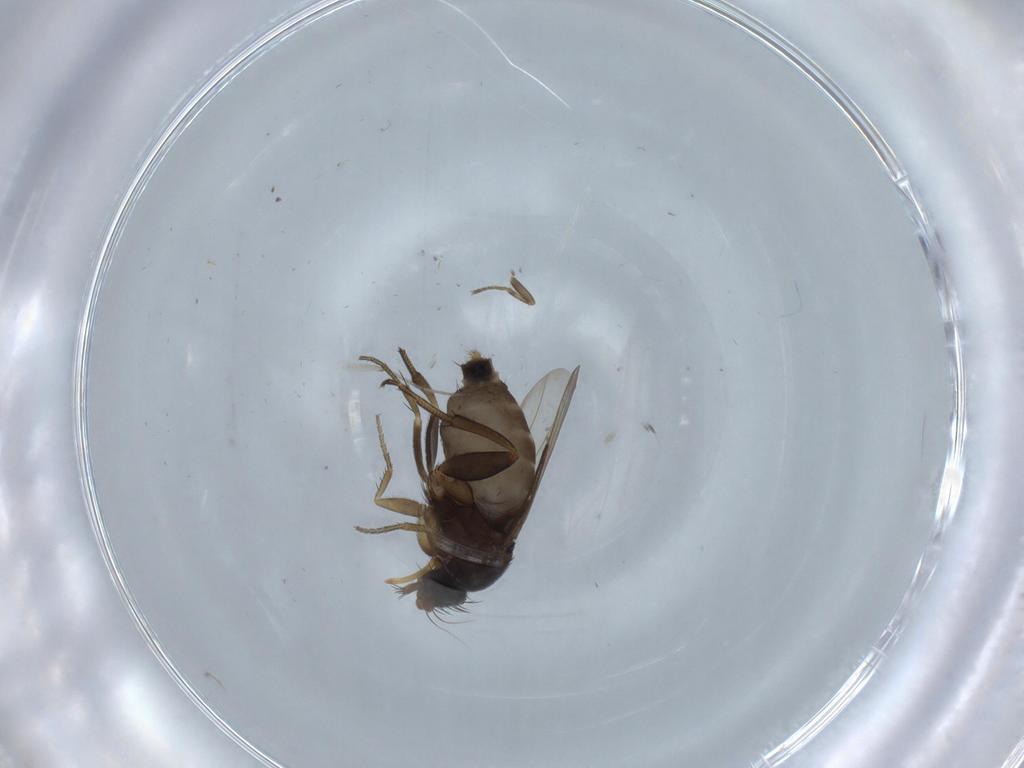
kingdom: Animalia
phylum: Arthropoda
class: Insecta
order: Diptera
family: Phoridae
